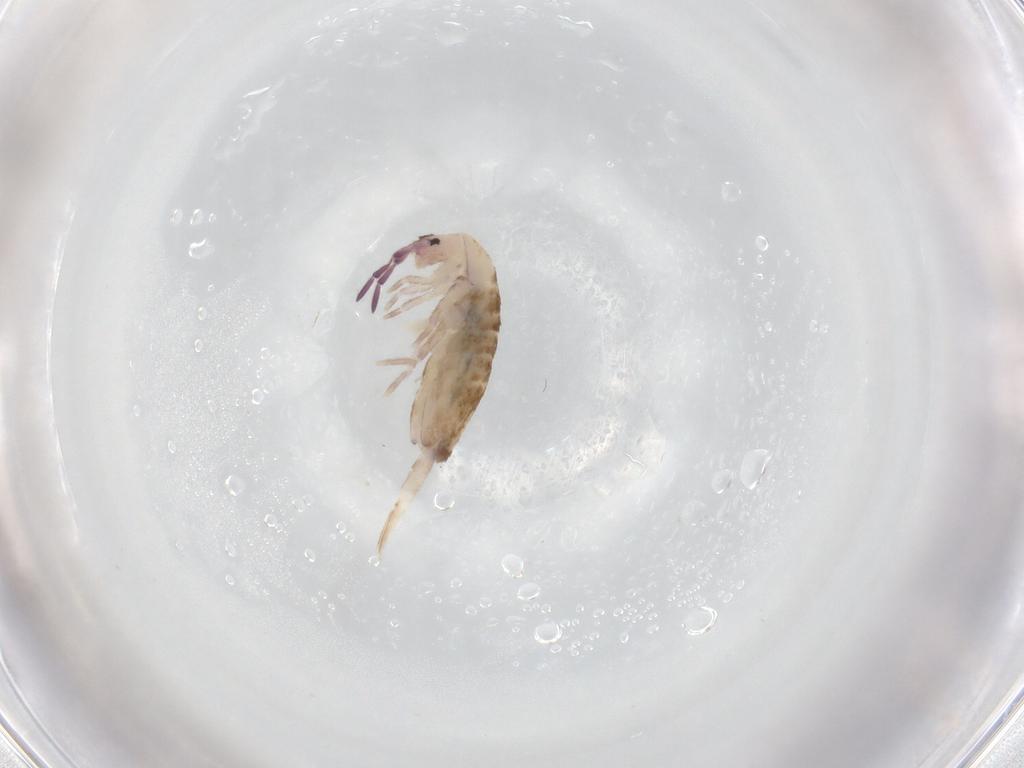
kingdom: Animalia
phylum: Arthropoda
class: Collembola
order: Entomobryomorpha
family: Entomobryidae
